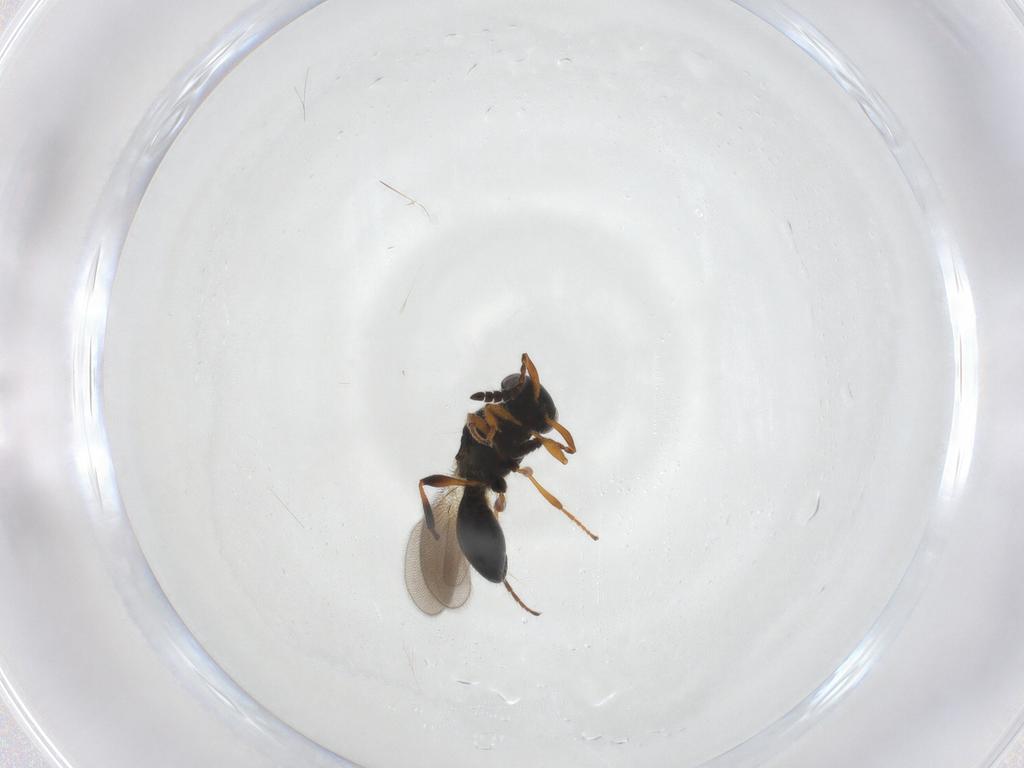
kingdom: Animalia
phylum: Arthropoda
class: Insecta
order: Hymenoptera
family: Platygastridae
